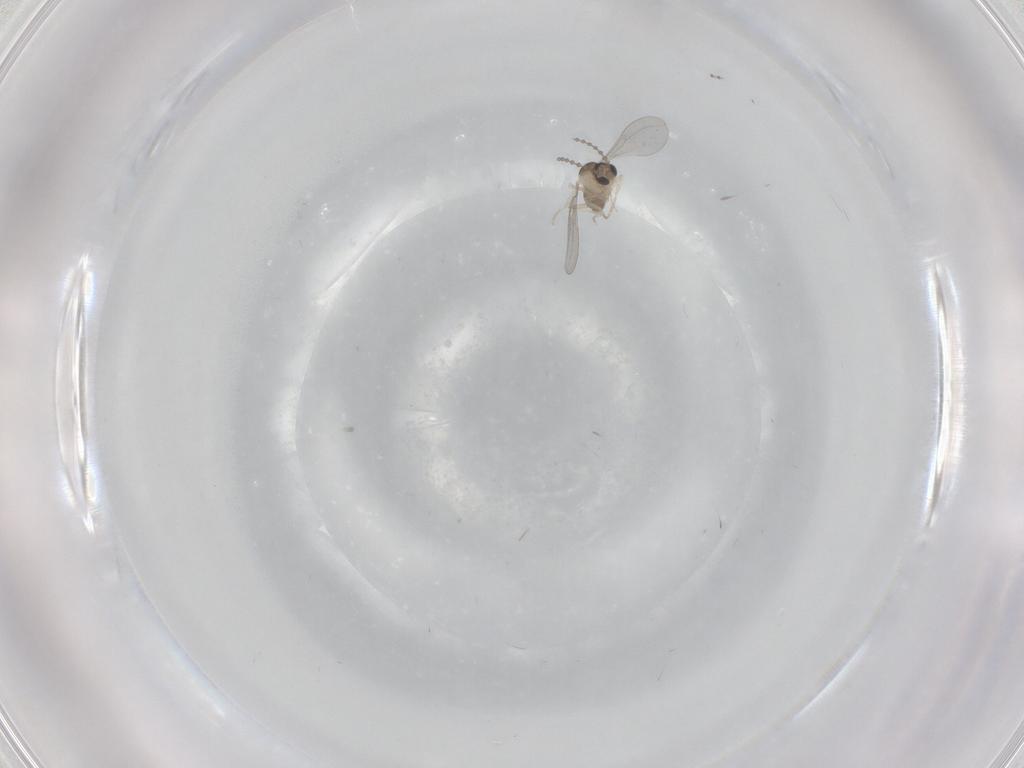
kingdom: Animalia
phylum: Arthropoda
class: Insecta
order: Diptera
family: Cecidomyiidae
